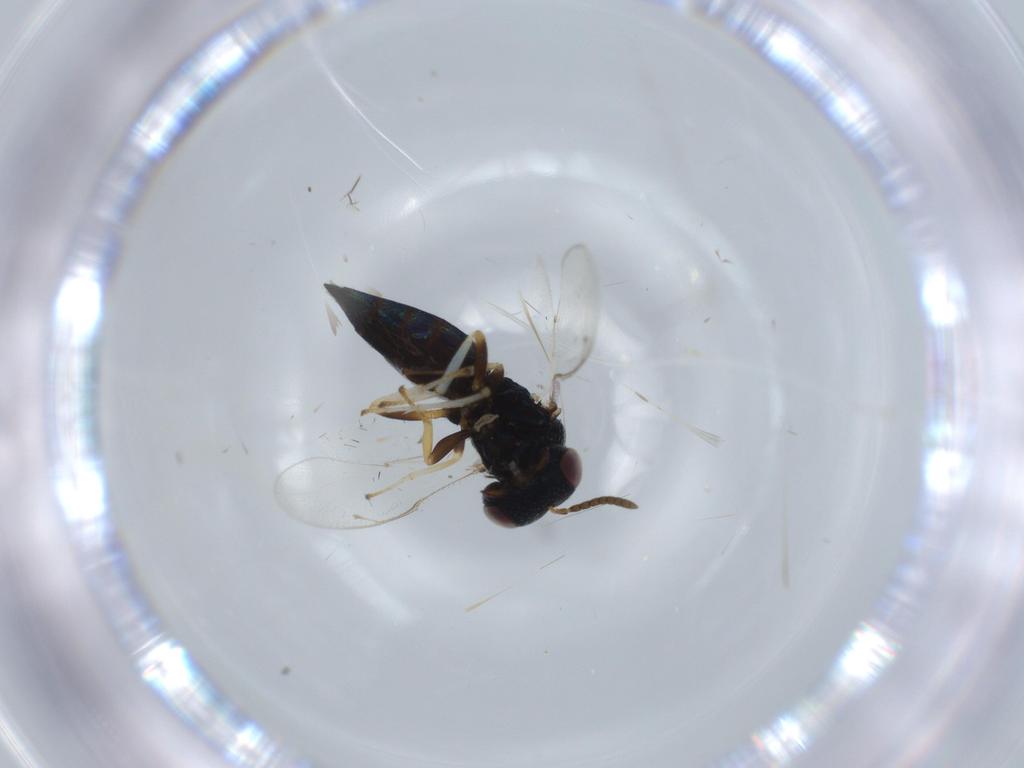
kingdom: Animalia
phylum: Arthropoda
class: Insecta
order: Hymenoptera
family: Pteromalidae
